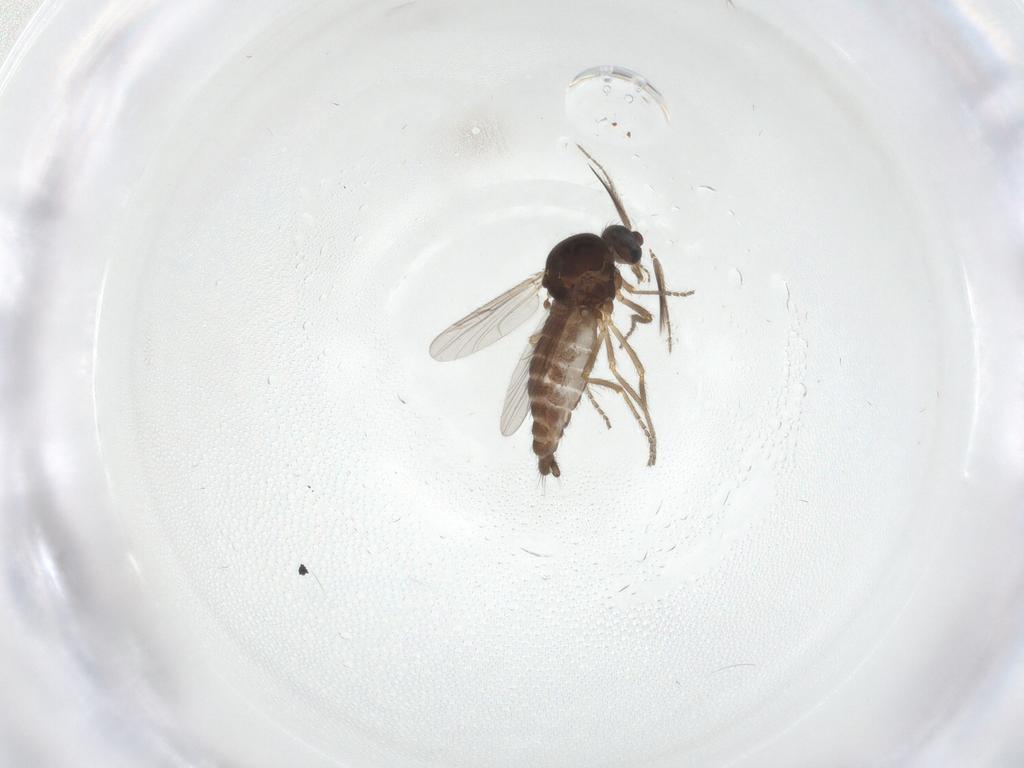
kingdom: Animalia
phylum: Arthropoda
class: Insecta
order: Diptera
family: Ceratopogonidae
